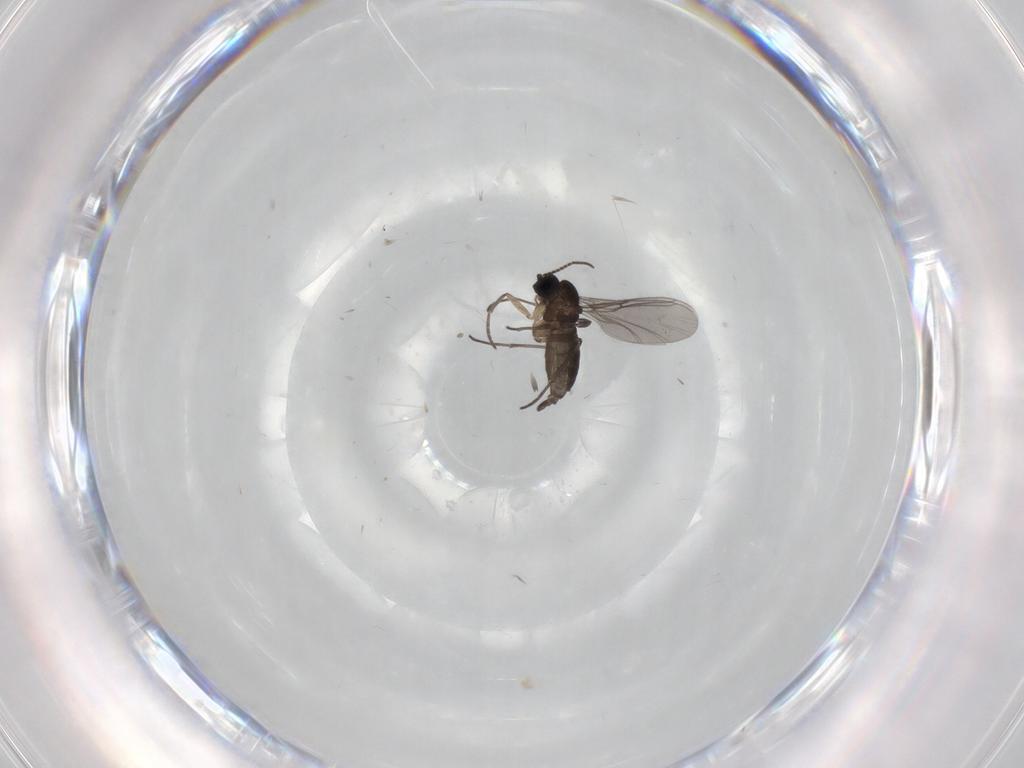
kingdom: Animalia
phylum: Arthropoda
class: Insecta
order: Diptera
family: Sciaridae
